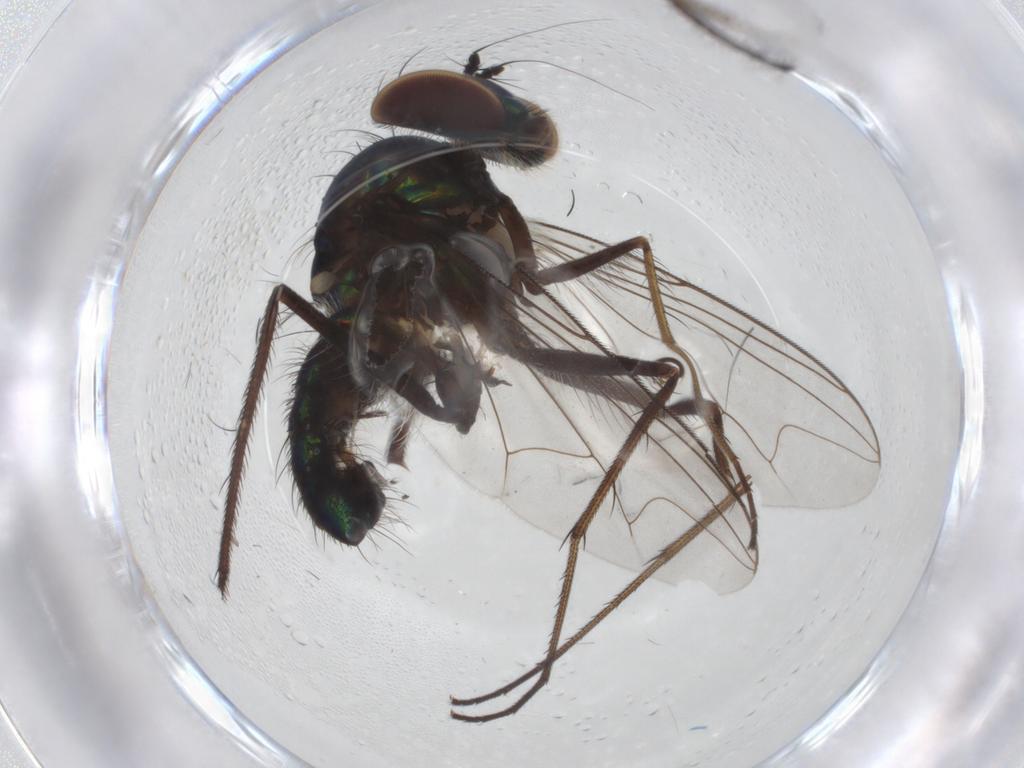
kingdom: Animalia
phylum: Arthropoda
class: Insecta
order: Diptera
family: Dolichopodidae
